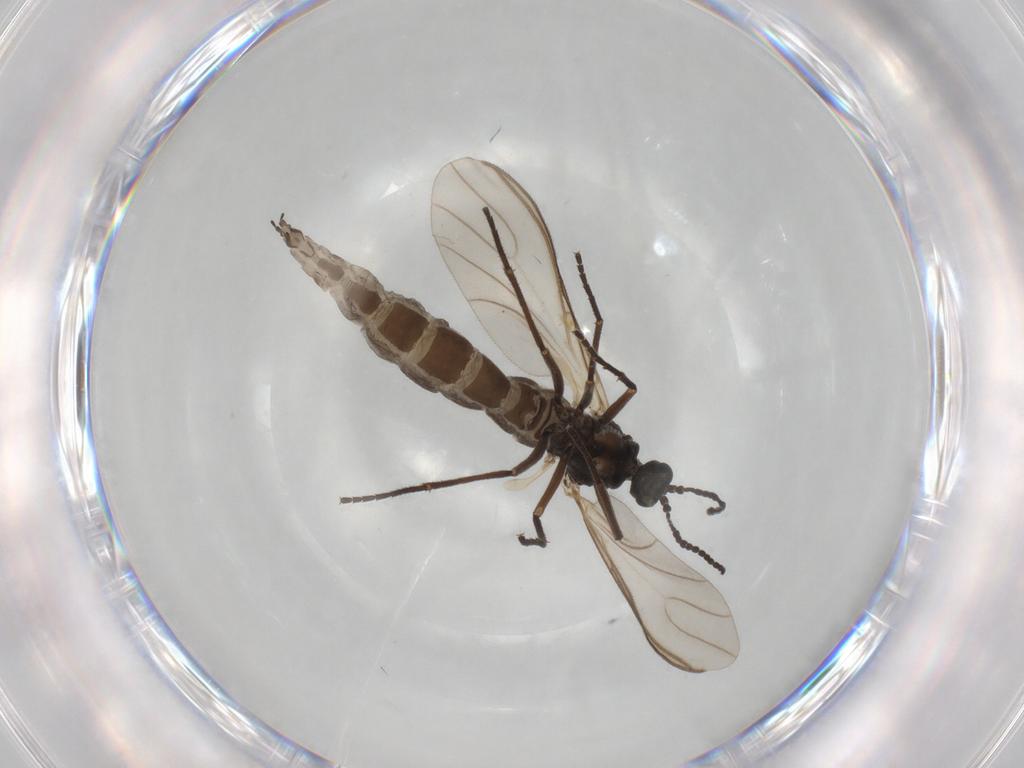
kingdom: Animalia
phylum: Arthropoda
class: Insecta
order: Diptera
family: Sciaridae
